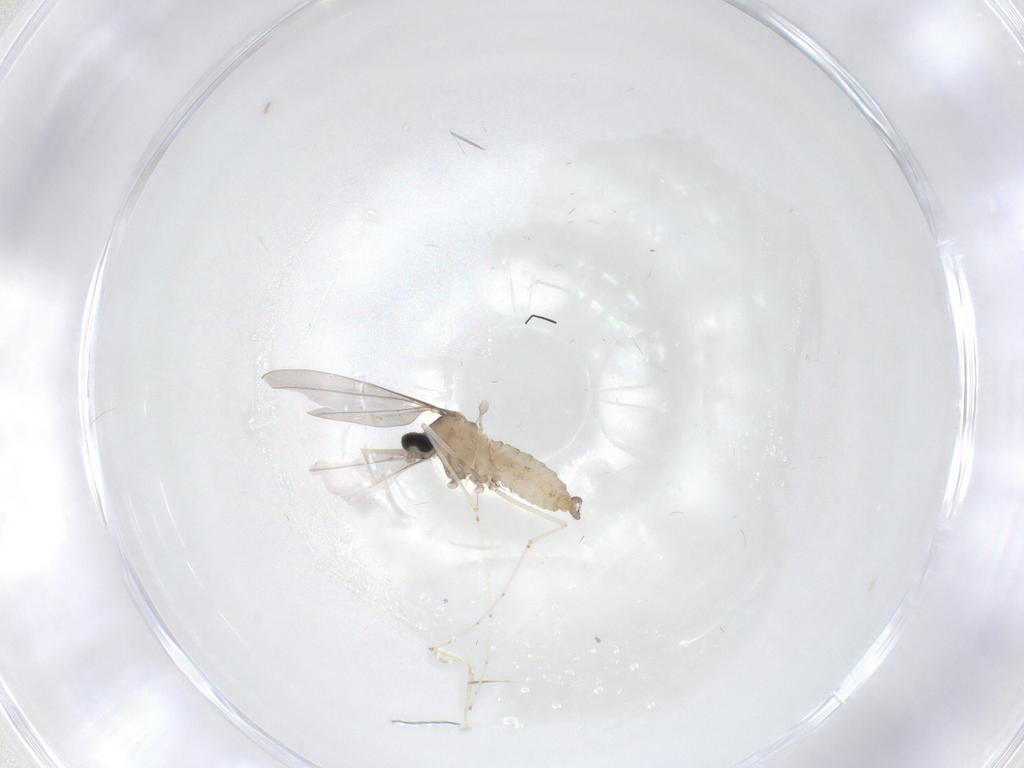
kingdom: Animalia
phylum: Arthropoda
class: Insecta
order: Diptera
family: Cecidomyiidae
